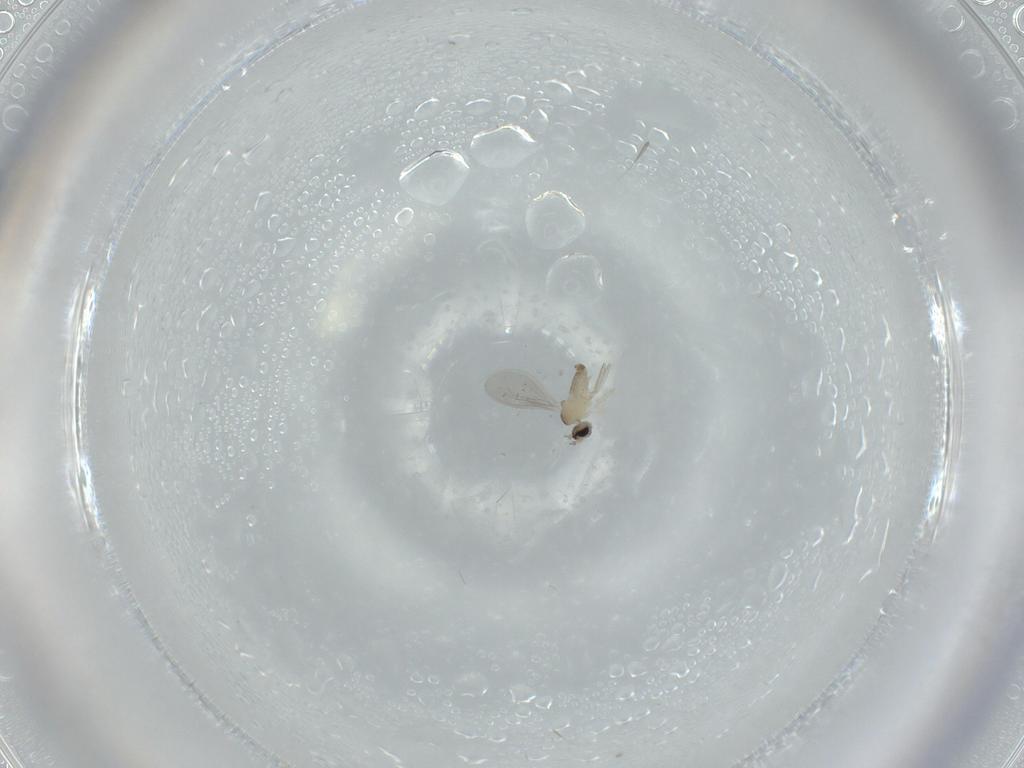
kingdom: Animalia
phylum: Arthropoda
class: Insecta
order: Diptera
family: Cecidomyiidae
